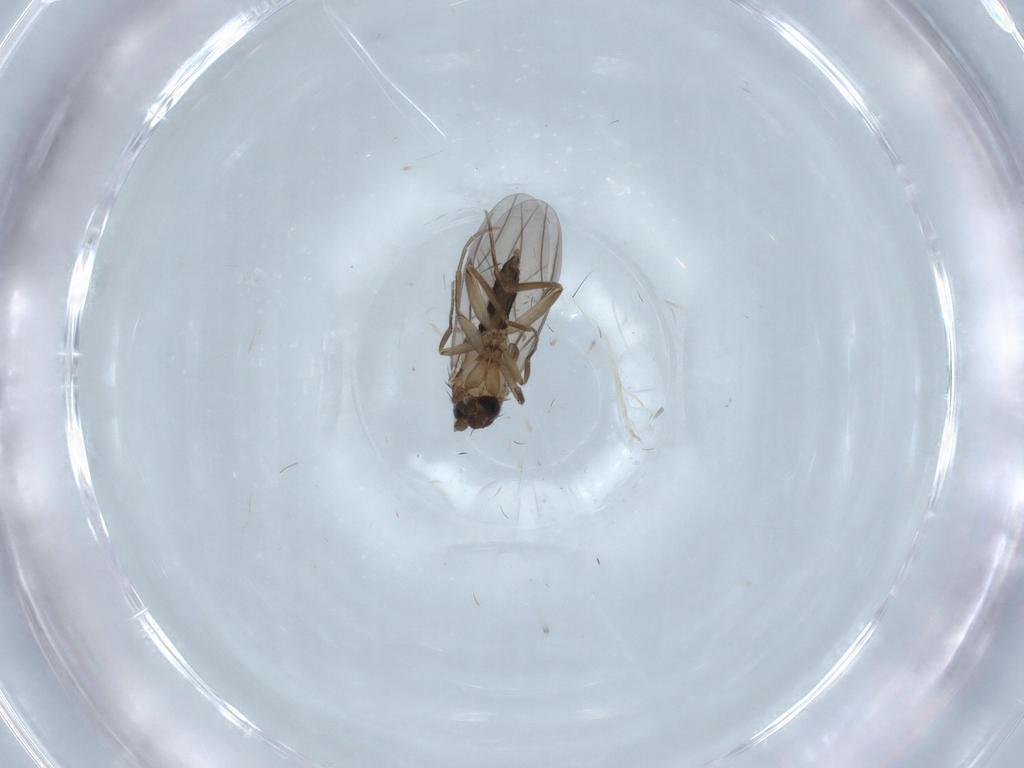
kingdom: Animalia
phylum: Arthropoda
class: Insecta
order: Diptera
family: Phoridae
